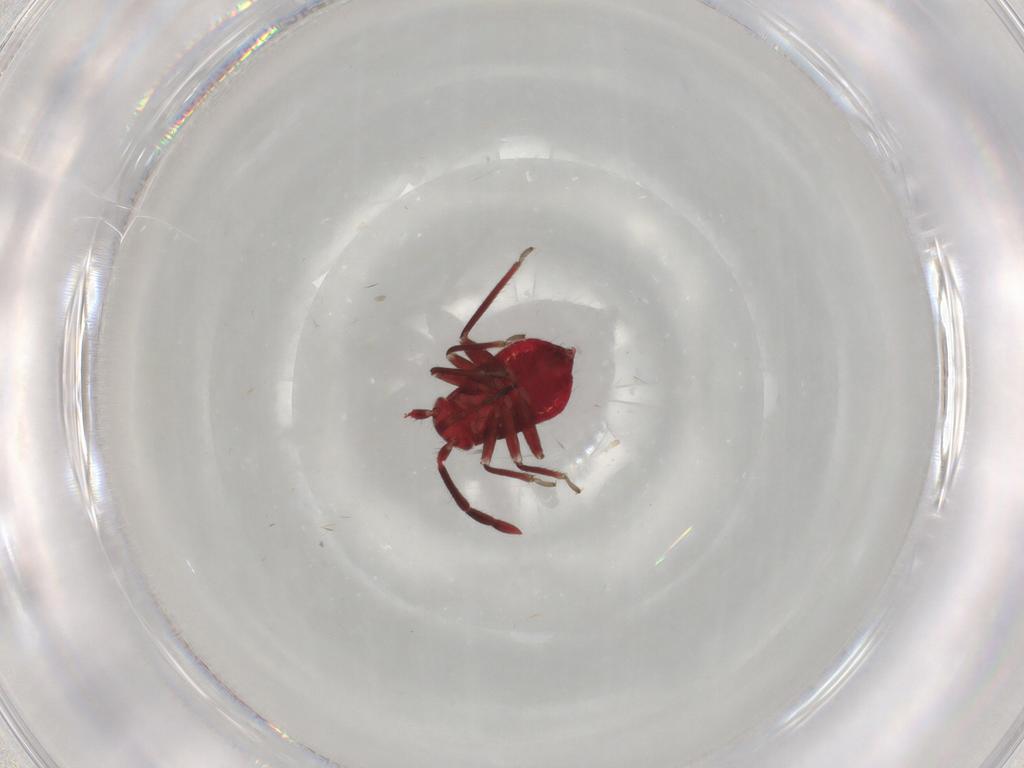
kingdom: Animalia
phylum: Arthropoda
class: Insecta
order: Hemiptera
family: Miridae
